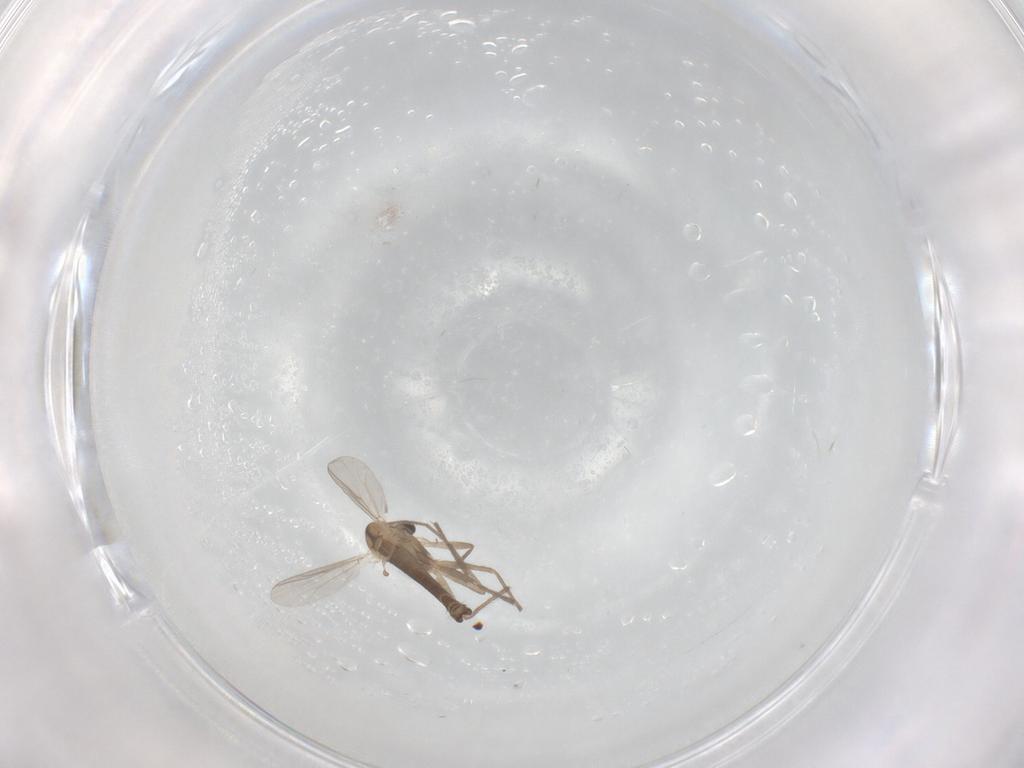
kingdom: Animalia
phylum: Arthropoda
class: Insecta
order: Diptera
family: Chironomidae
